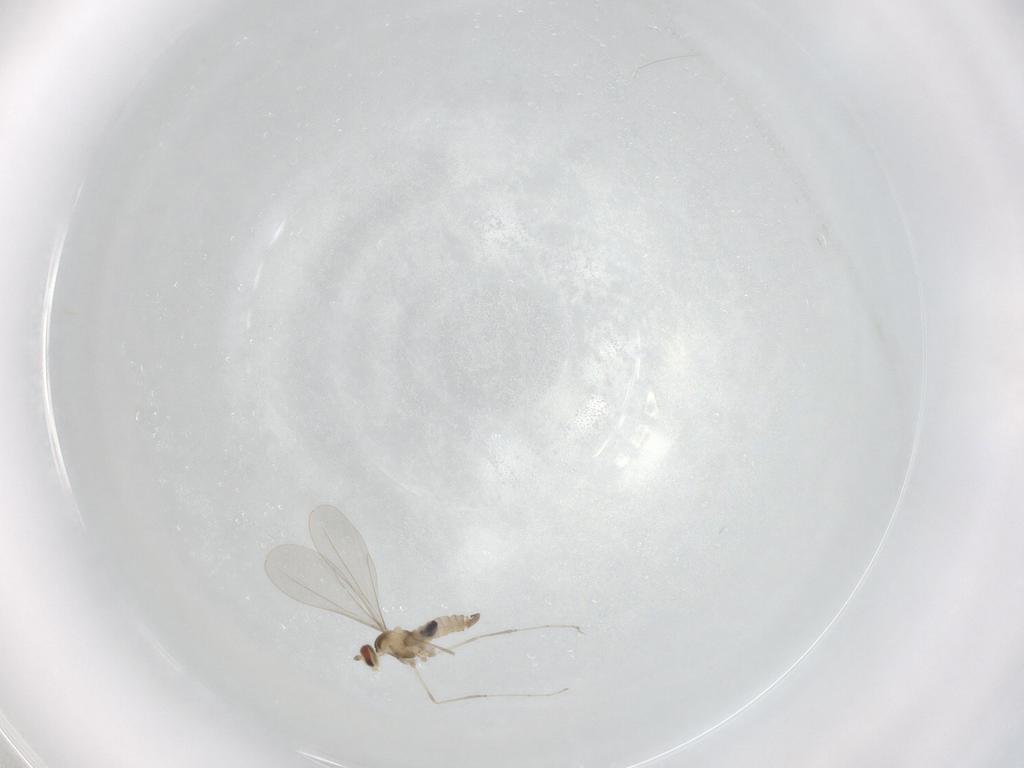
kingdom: Animalia
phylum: Arthropoda
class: Insecta
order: Diptera
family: Cecidomyiidae
